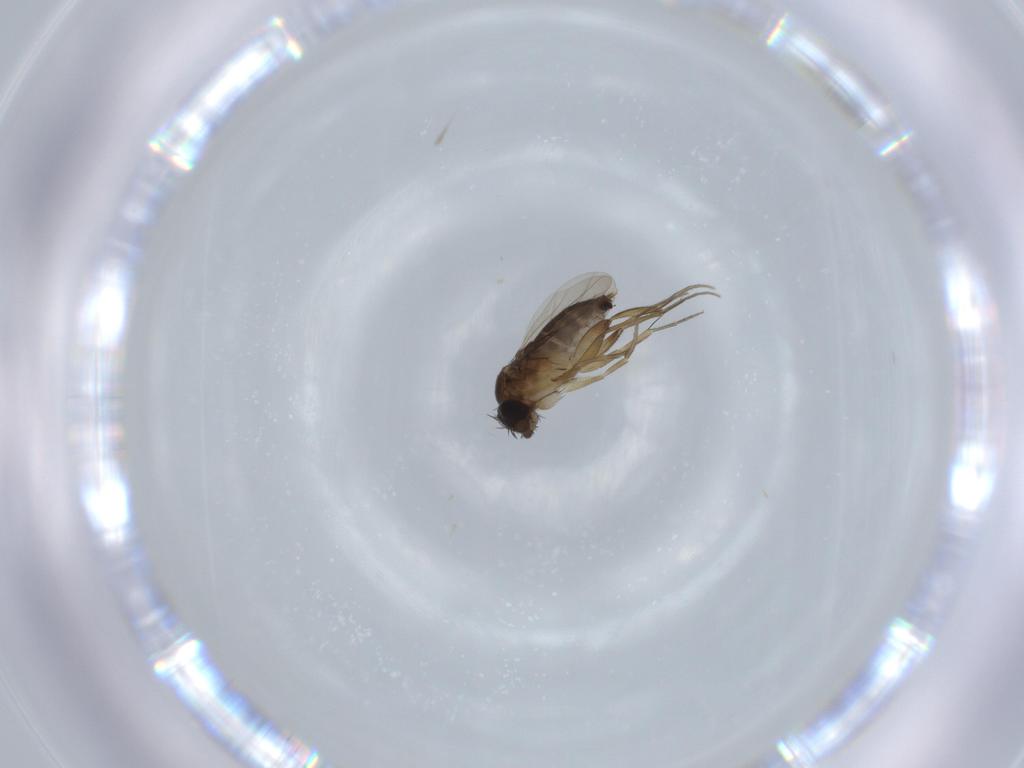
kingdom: Animalia
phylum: Arthropoda
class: Insecta
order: Diptera
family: Phoridae
